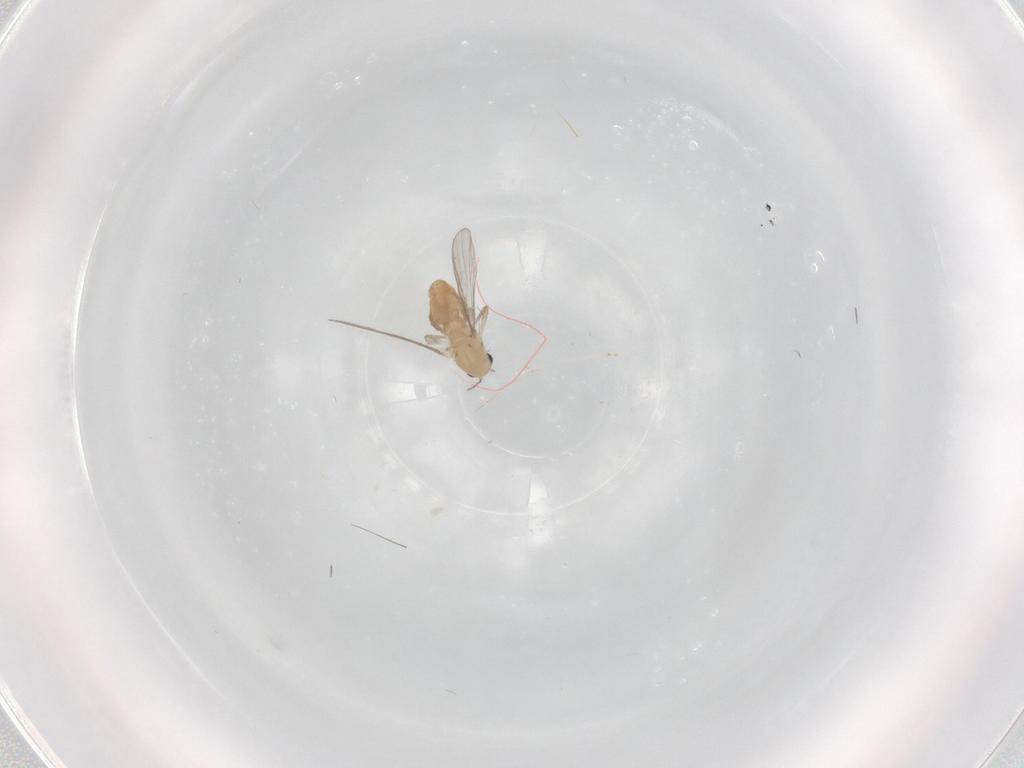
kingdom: Animalia
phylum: Arthropoda
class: Insecta
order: Diptera
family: Chironomidae
